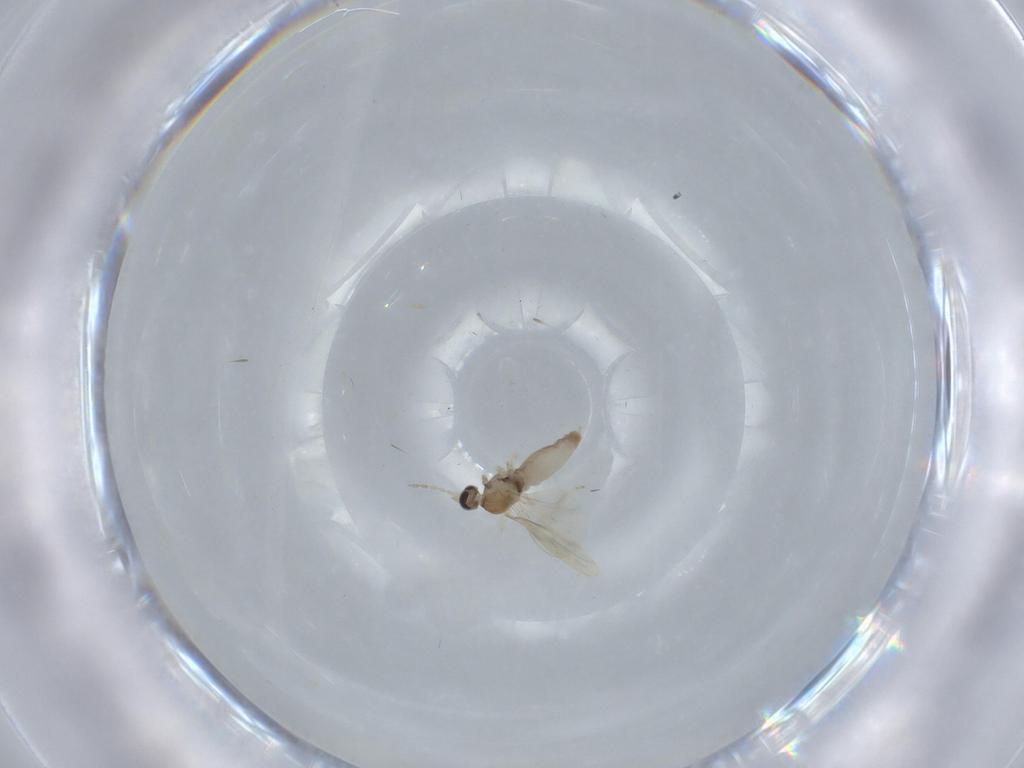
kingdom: Animalia
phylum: Arthropoda
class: Insecta
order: Diptera
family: Cecidomyiidae
